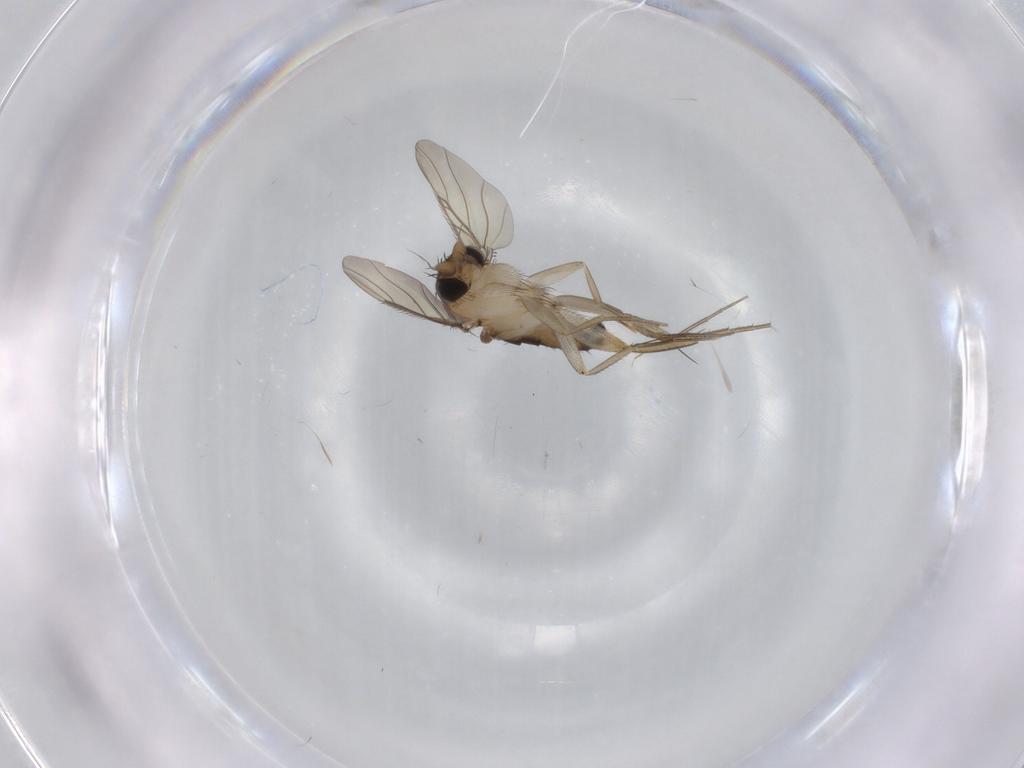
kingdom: Animalia
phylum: Arthropoda
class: Insecta
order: Diptera
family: Phoridae
